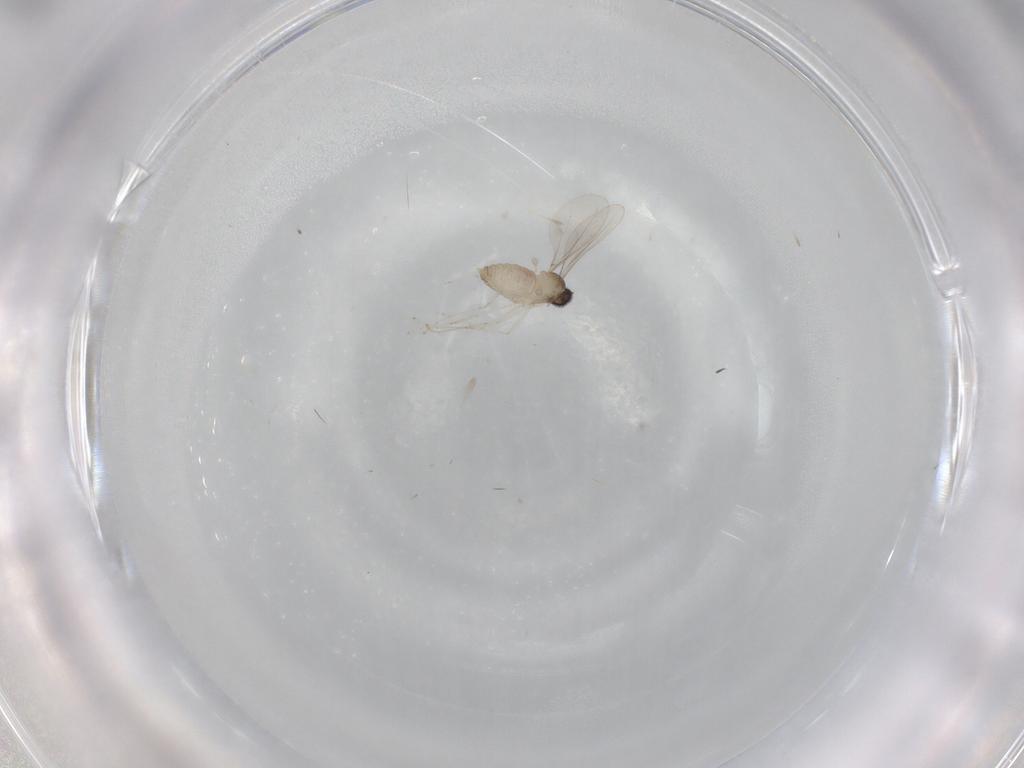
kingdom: Animalia
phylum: Arthropoda
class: Insecta
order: Diptera
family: Cecidomyiidae
